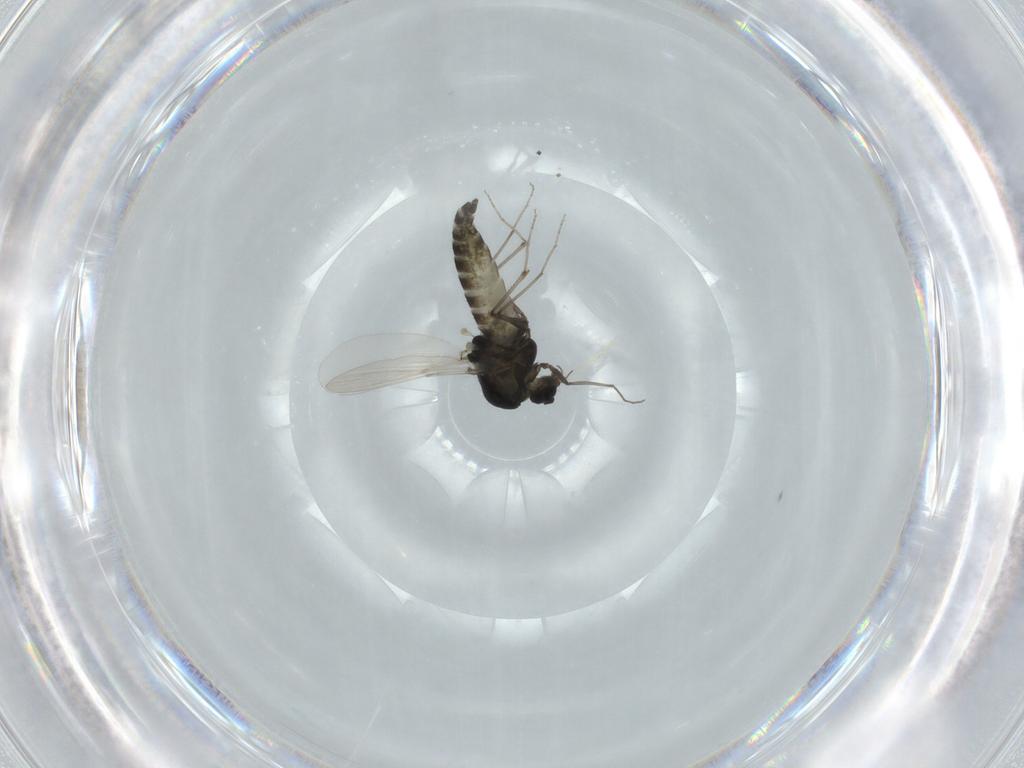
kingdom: Animalia
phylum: Arthropoda
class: Insecta
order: Diptera
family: Chironomidae
